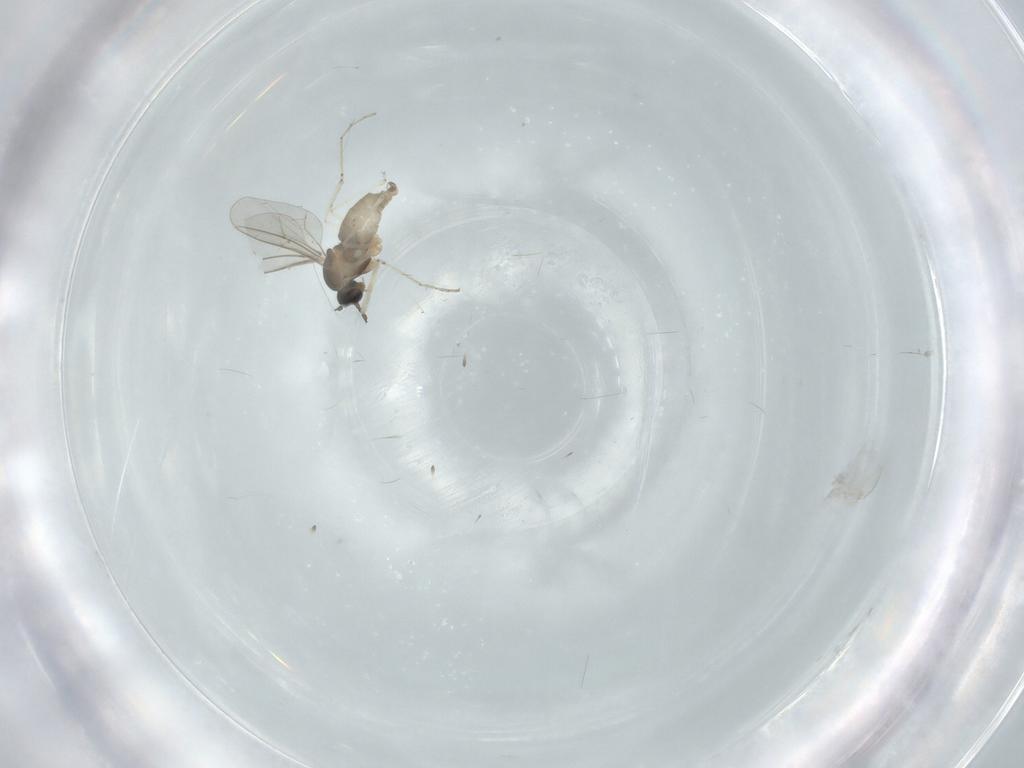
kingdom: Animalia
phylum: Arthropoda
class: Insecta
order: Diptera
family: Cecidomyiidae
